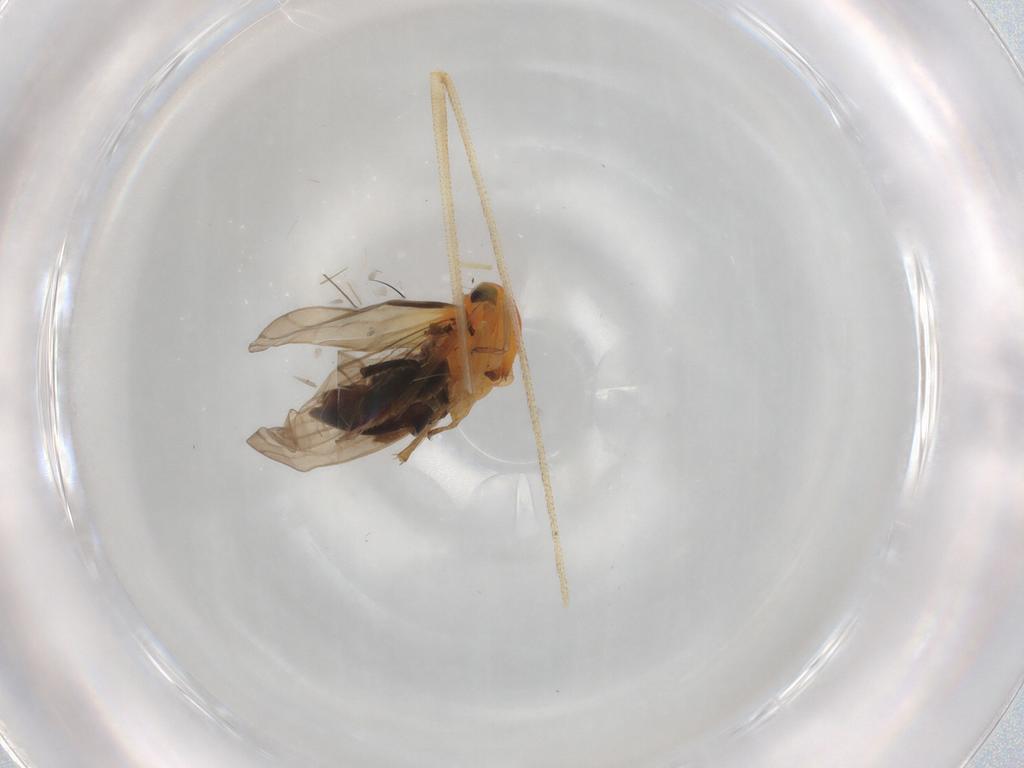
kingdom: Animalia
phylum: Arthropoda
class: Insecta
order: Hemiptera
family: Cicadellidae
